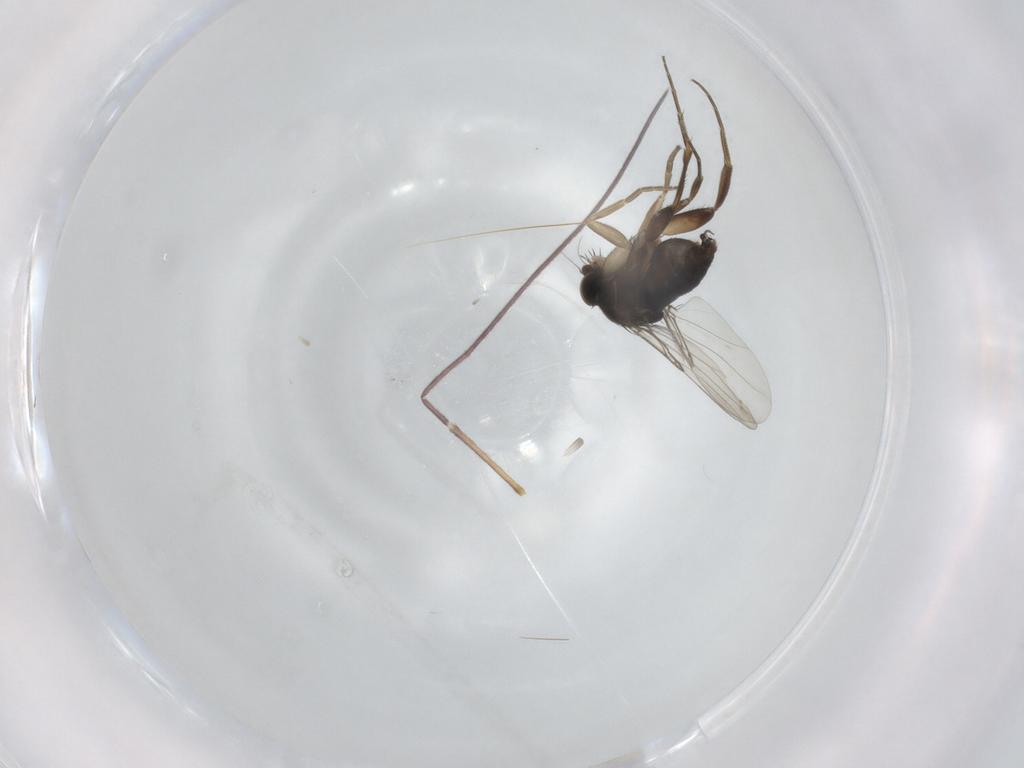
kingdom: Animalia
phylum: Arthropoda
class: Insecta
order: Diptera
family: Phoridae
